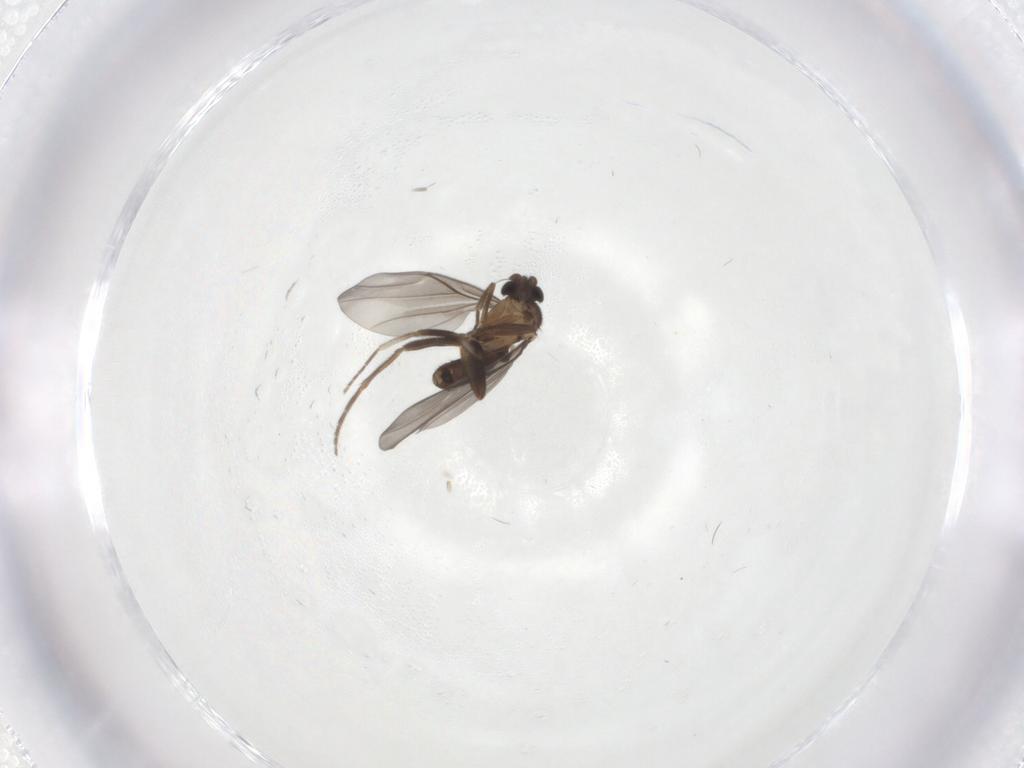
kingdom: Animalia
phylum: Arthropoda
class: Insecta
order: Diptera
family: Phoridae
